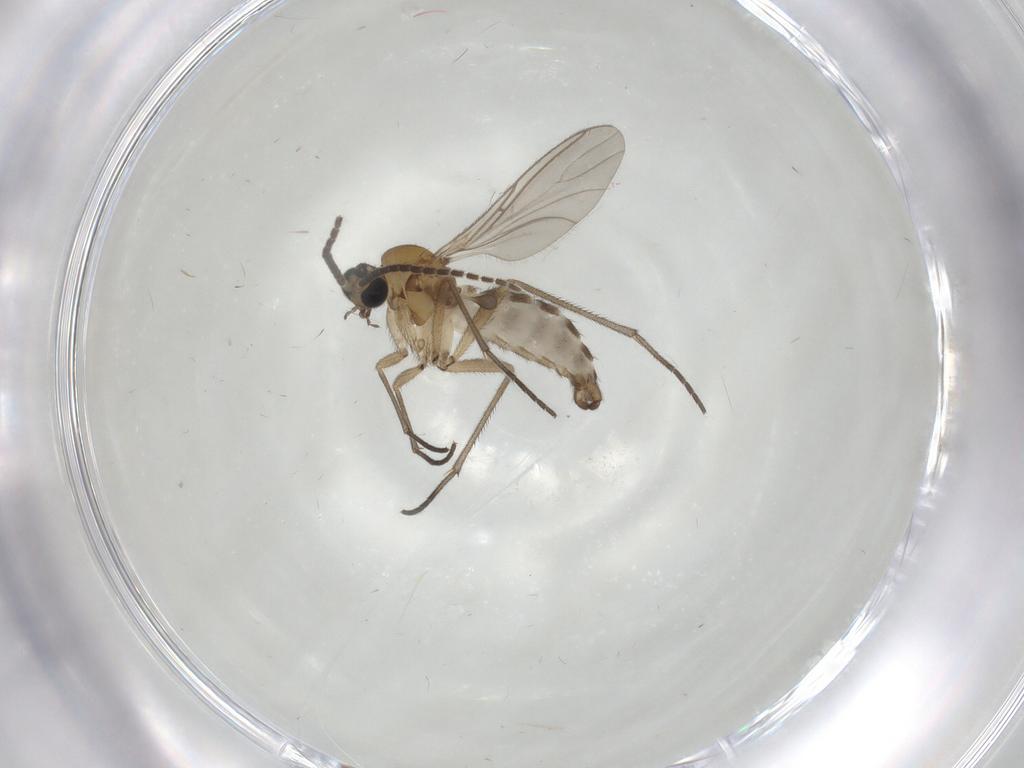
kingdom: Animalia
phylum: Arthropoda
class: Insecta
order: Diptera
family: Sciaridae
